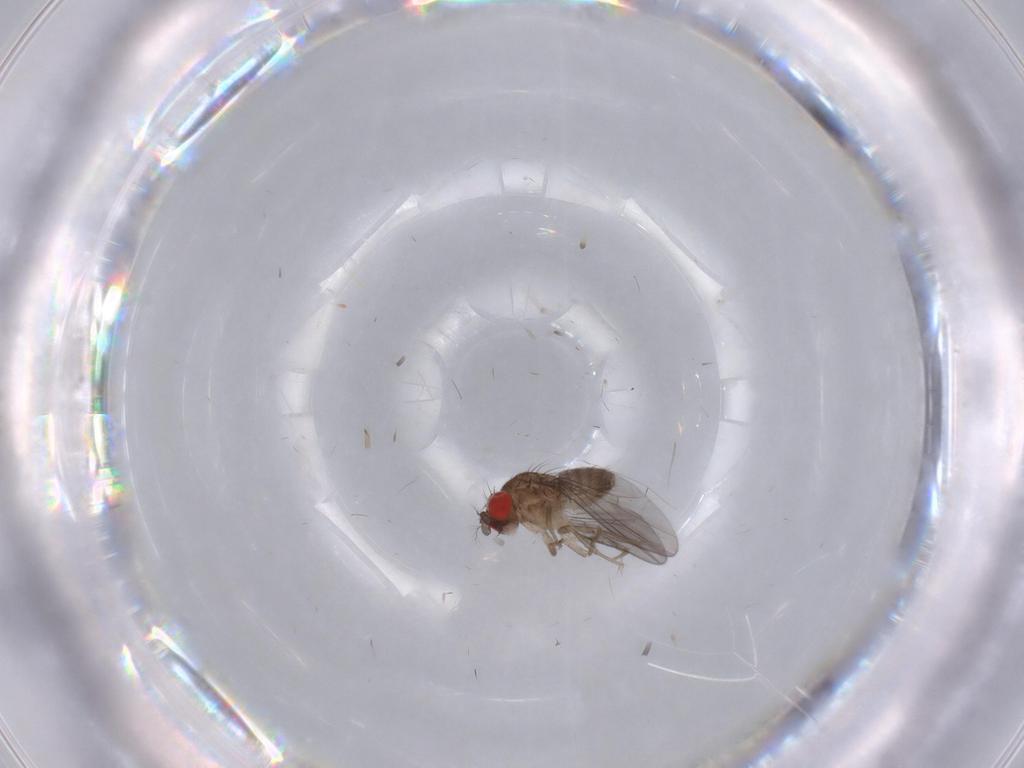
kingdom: Animalia
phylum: Arthropoda
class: Insecta
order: Diptera
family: Drosophilidae
